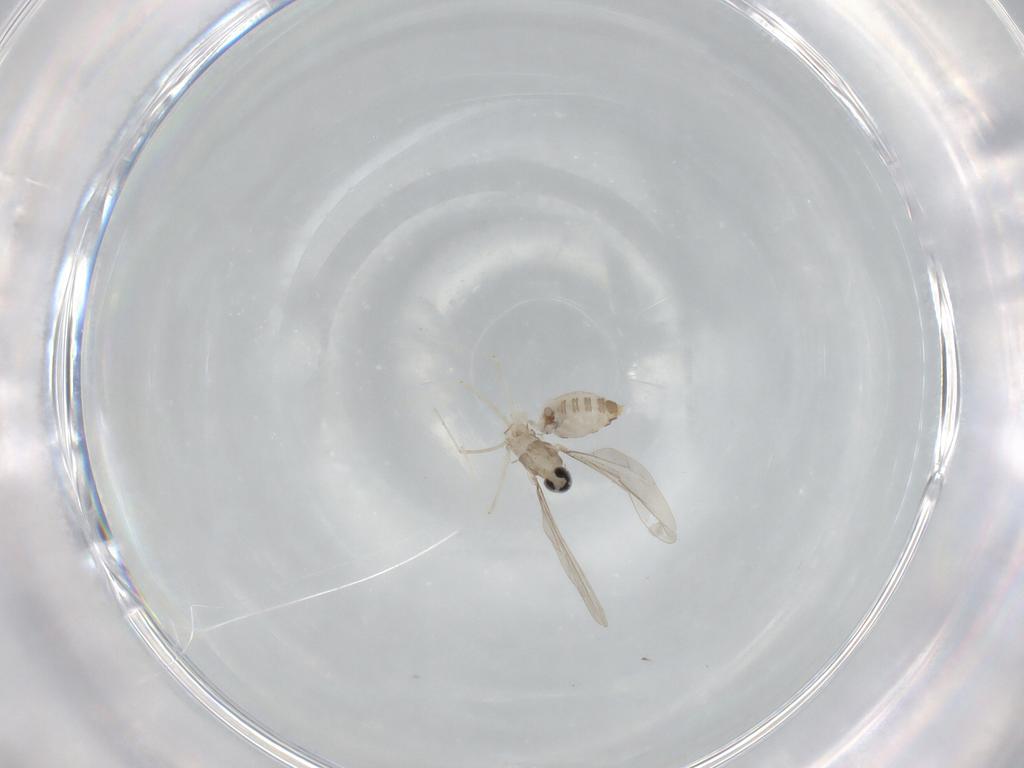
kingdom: Animalia
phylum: Arthropoda
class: Insecta
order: Diptera
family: Cecidomyiidae
